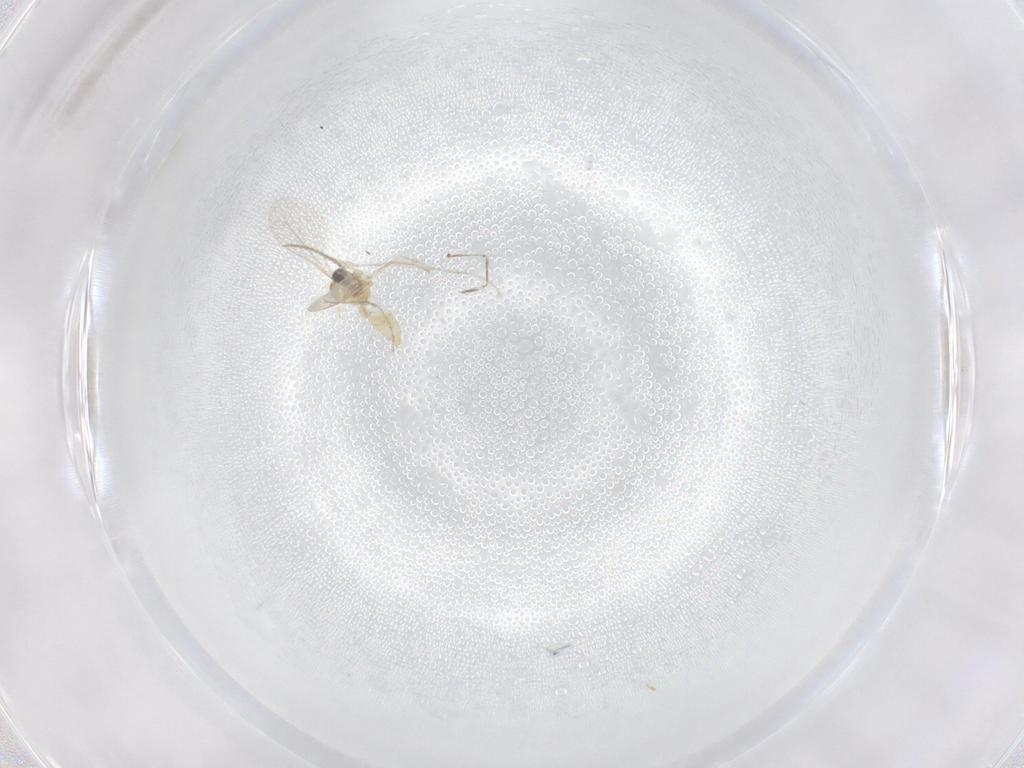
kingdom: Animalia
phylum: Arthropoda
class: Insecta
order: Diptera
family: Cecidomyiidae
